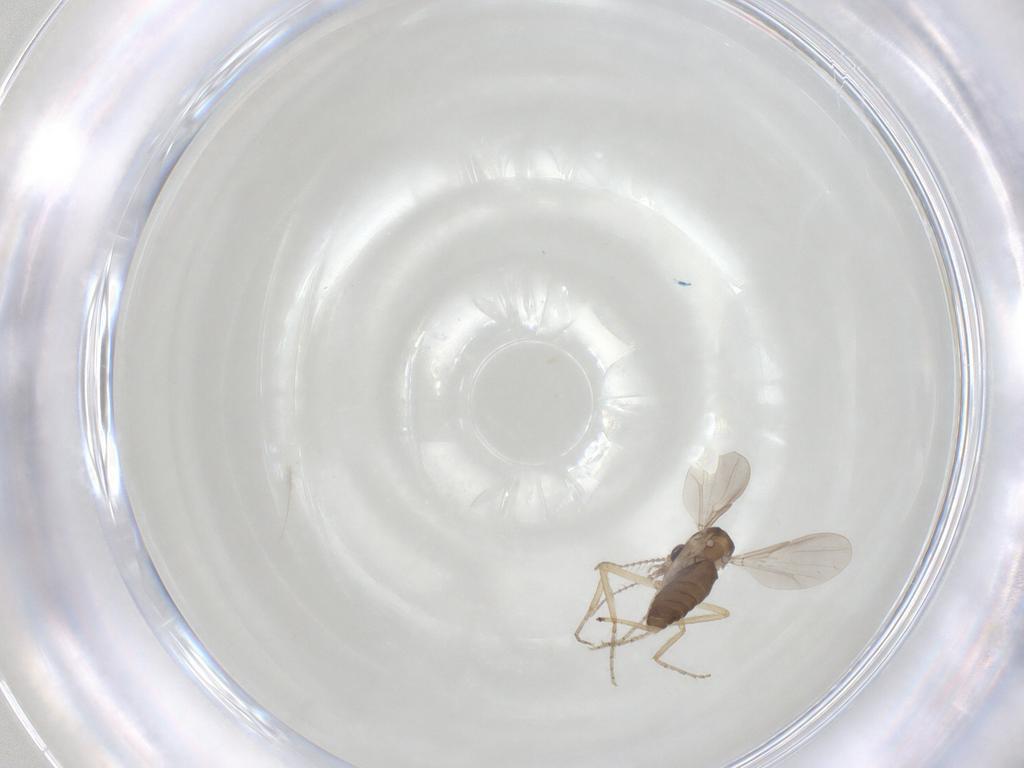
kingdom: Animalia
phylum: Arthropoda
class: Insecta
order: Diptera
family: Ceratopogonidae
